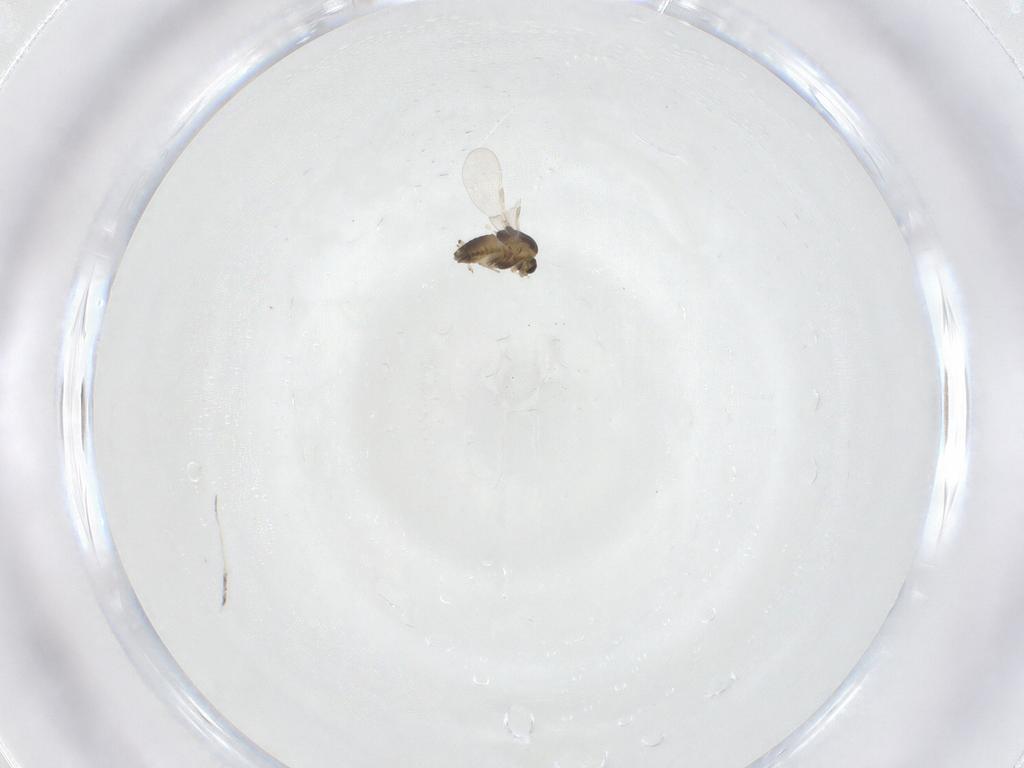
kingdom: Animalia
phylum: Arthropoda
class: Insecta
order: Diptera
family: Chironomidae
